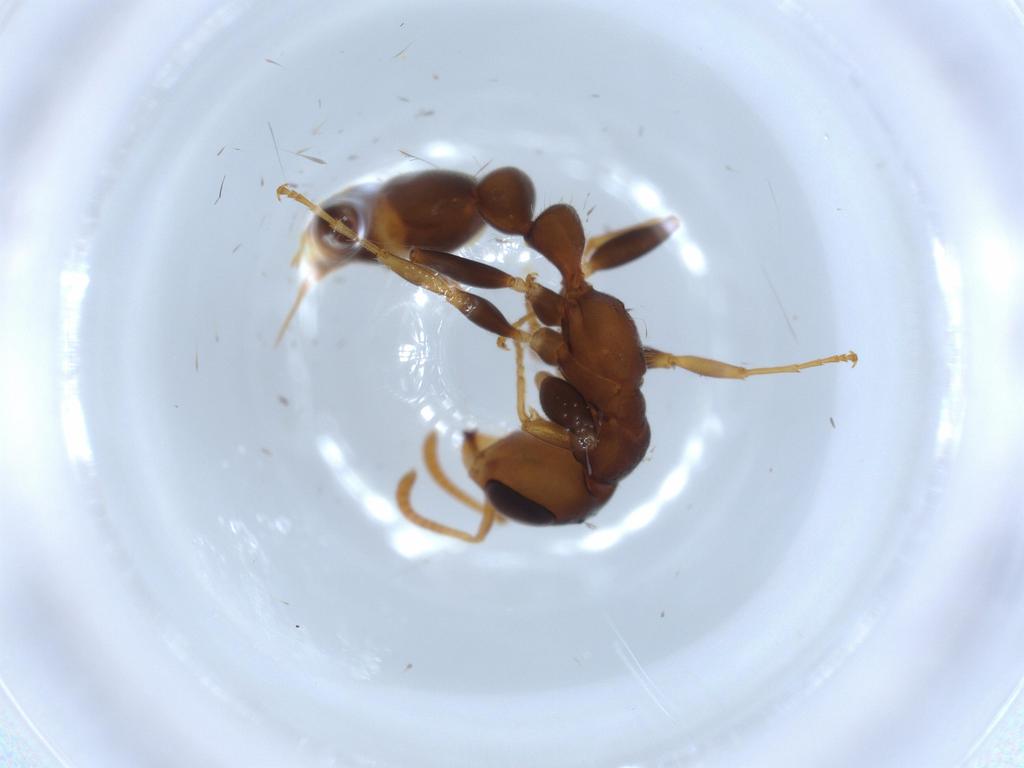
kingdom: Animalia
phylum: Arthropoda
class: Insecta
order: Hymenoptera
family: Formicidae
